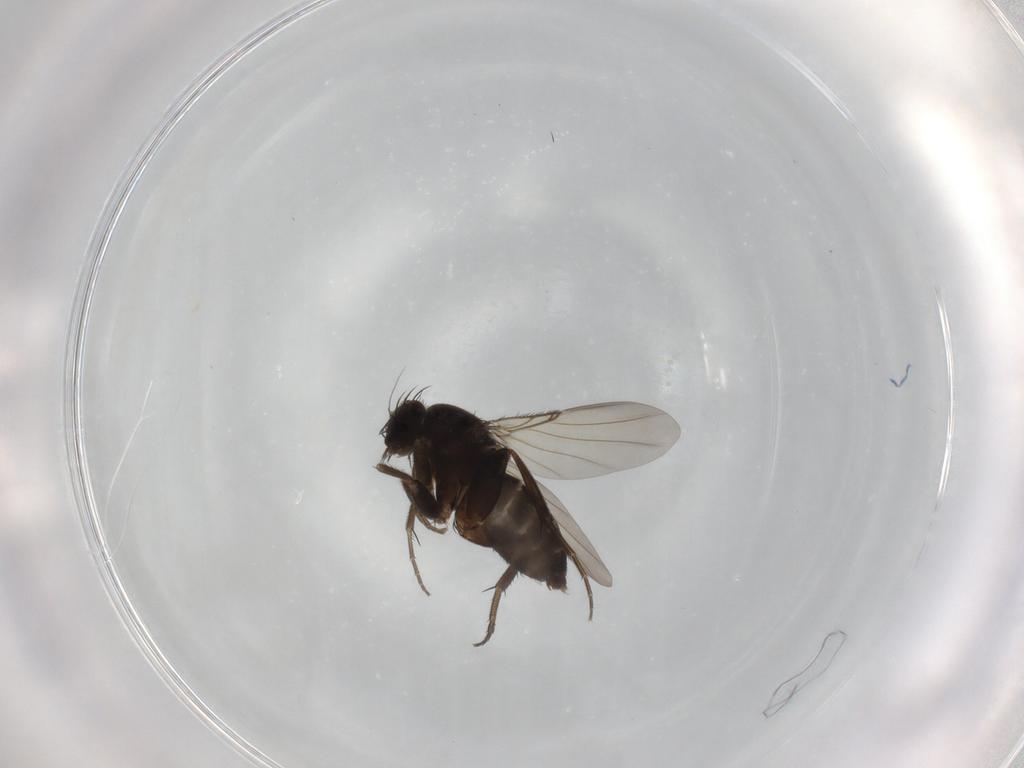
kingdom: Animalia
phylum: Arthropoda
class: Insecta
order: Diptera
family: Phoridae
